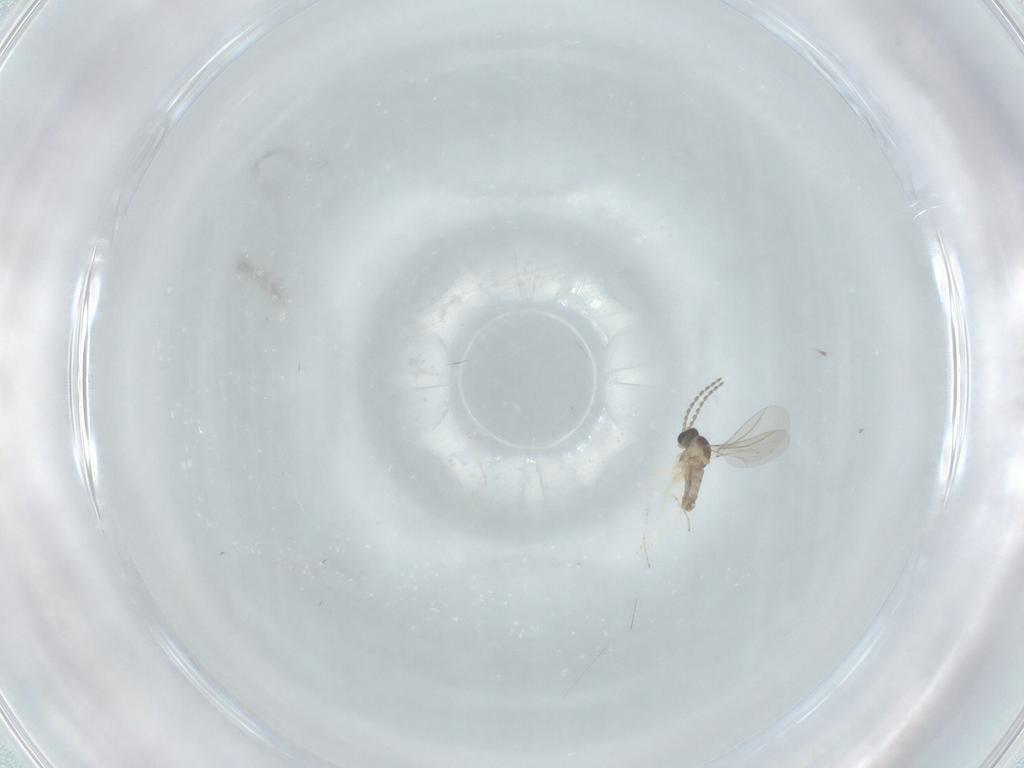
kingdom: Animalia
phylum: Arthropoda
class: Insecta
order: Diptera
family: Cecidomyiidae
